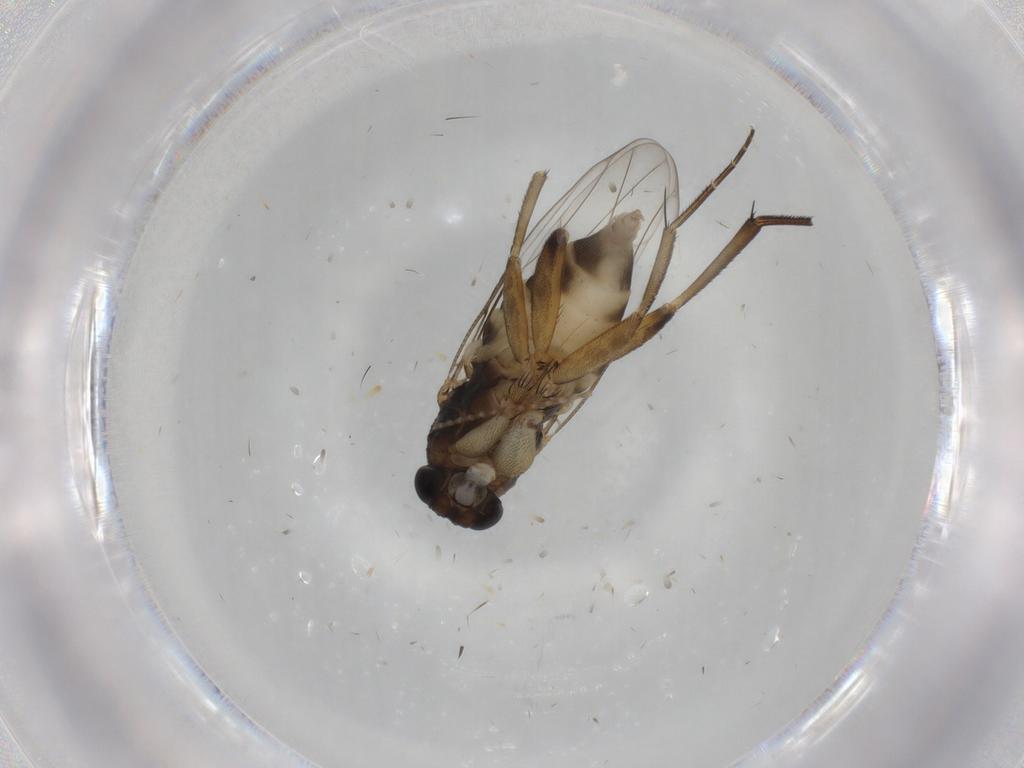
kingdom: Animalia
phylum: Arthropoda
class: Insecta
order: Diptera
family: Phoridae
